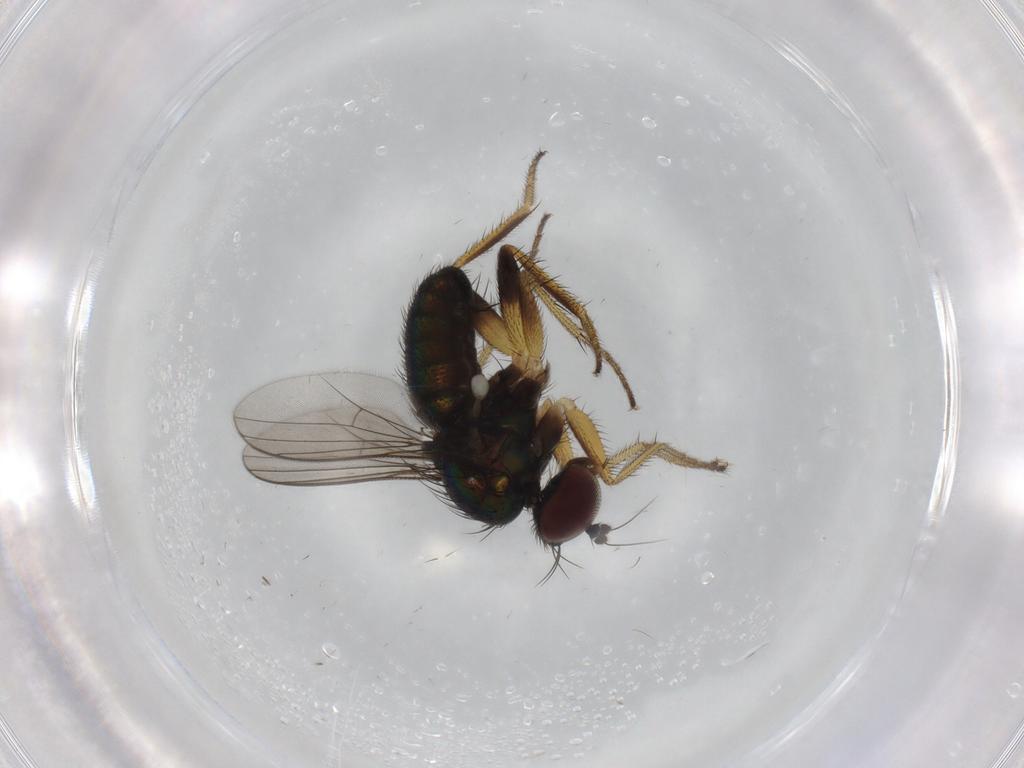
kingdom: Animalia
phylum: Arthropoda
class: Insecta
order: Diptera
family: Dolichopodidae
